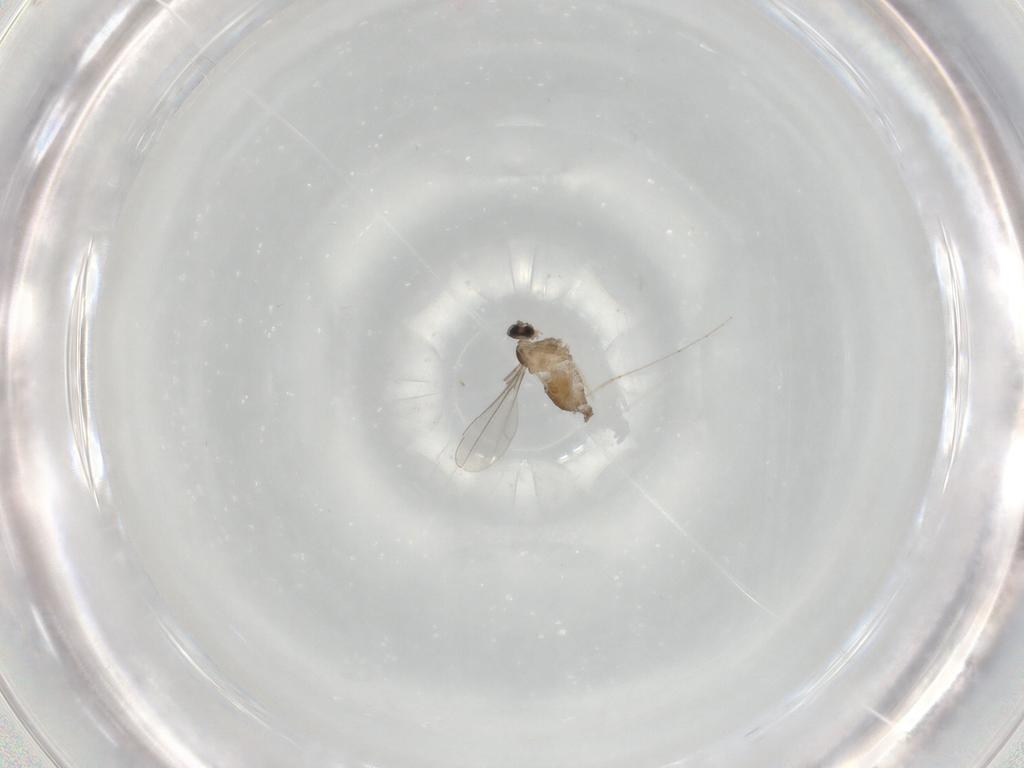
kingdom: Animalia
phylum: Arthropoda
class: Insecta
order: Diptera
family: Cecidomyiidae
